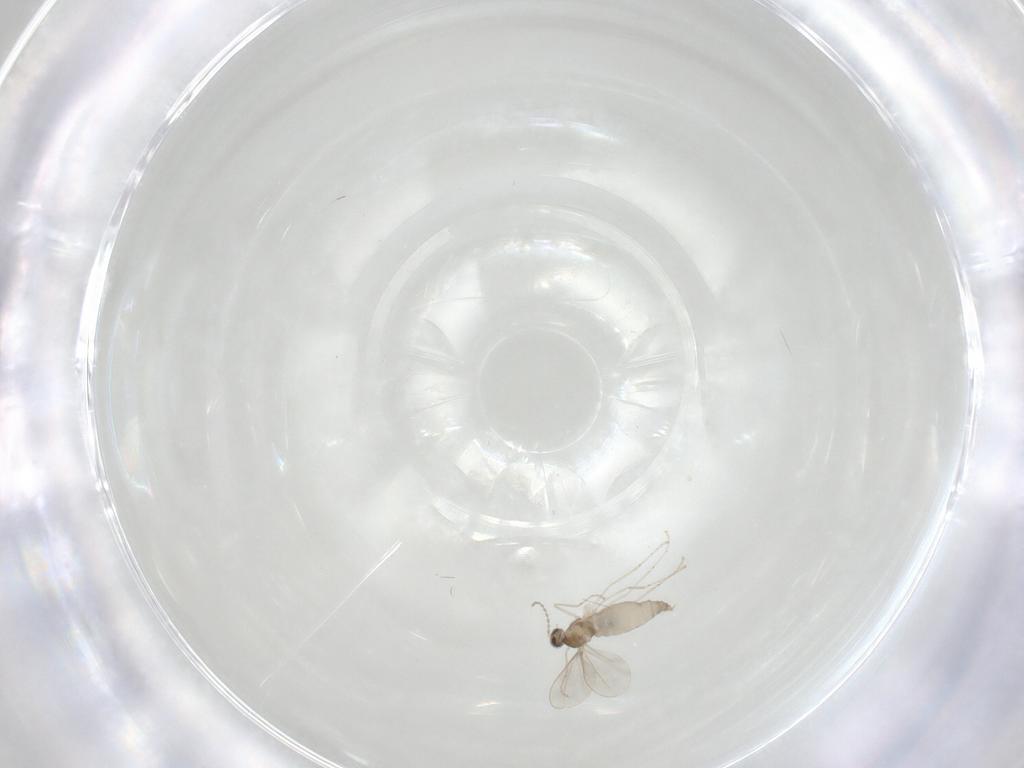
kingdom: Animalia
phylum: Arthropoda
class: Insecta
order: Diptera
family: Cecidomyiidae
